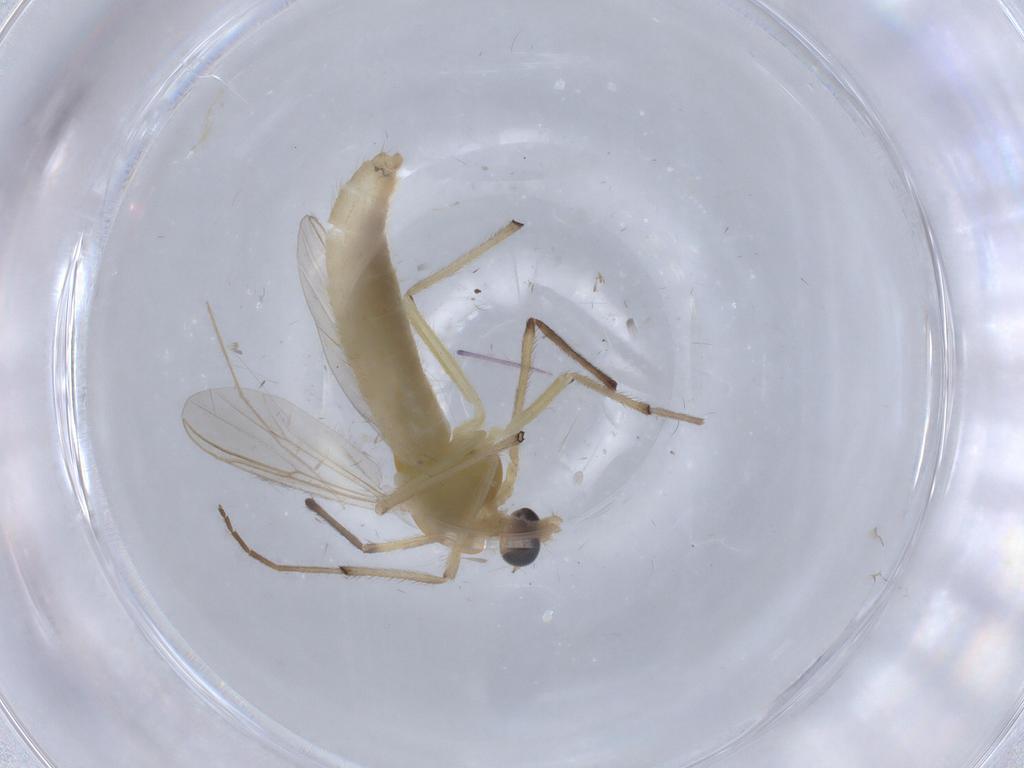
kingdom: Animalia
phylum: Arthropoda
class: Insecta
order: Diptera
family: Chironomidae
